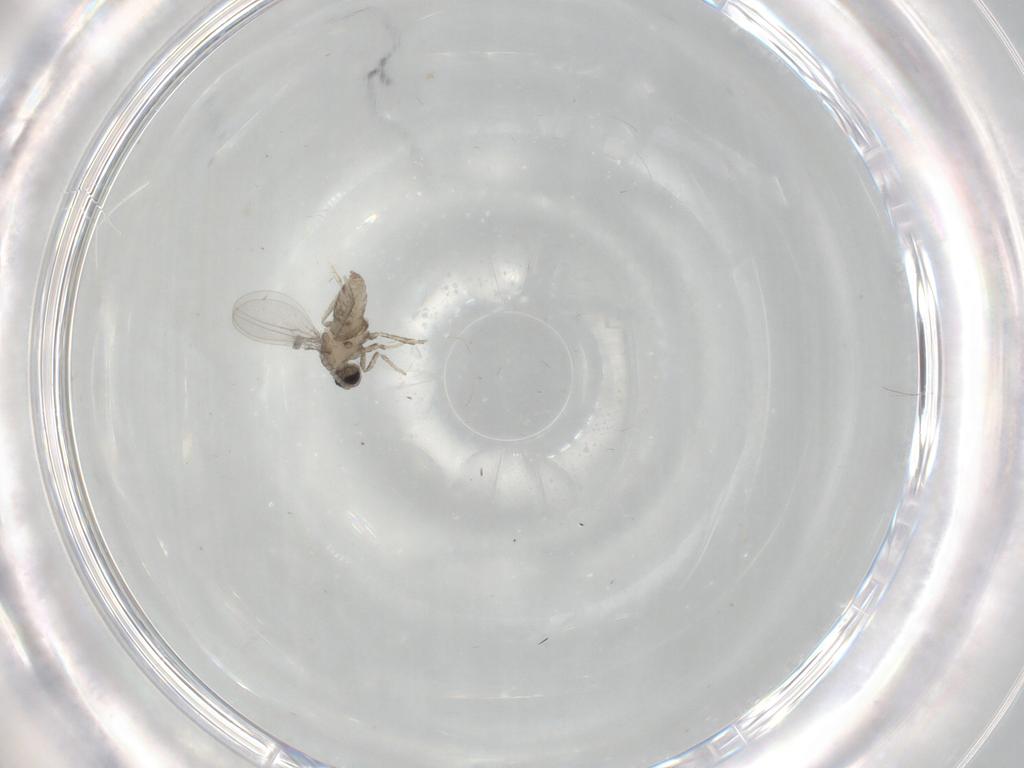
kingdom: Animalia
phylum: Arthropoda
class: Insecta
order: Diptera
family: Cecidomyiidae
